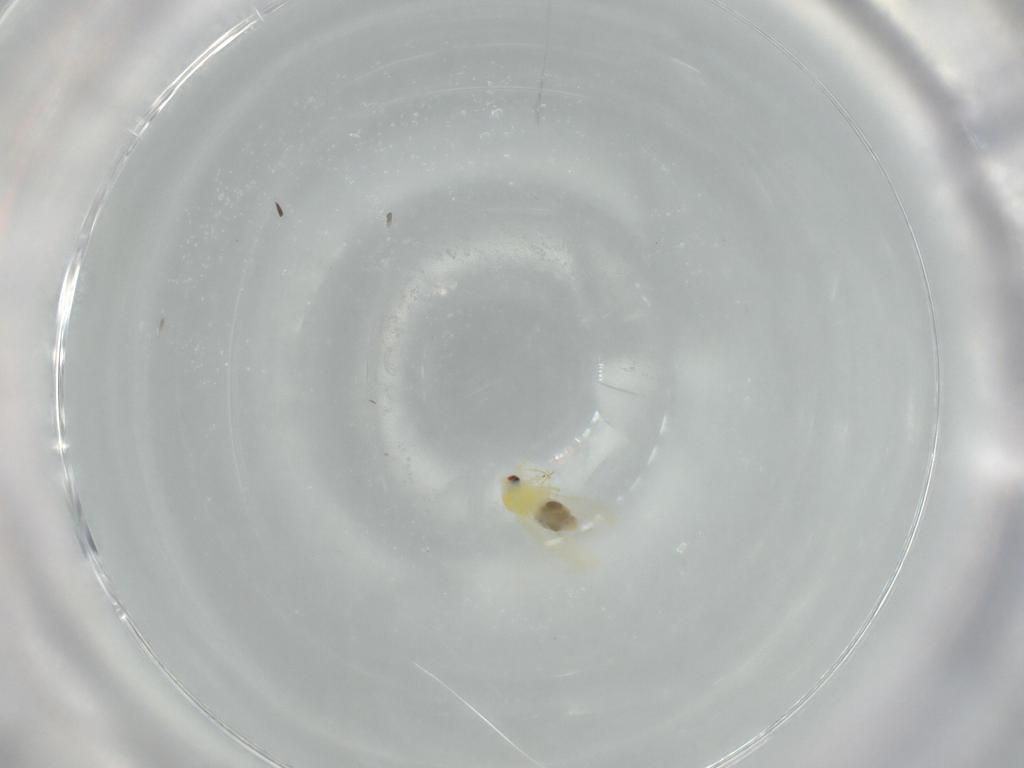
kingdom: Animalia
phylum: Arthropoda
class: Insecta
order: Hemiptera
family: Aleyrodidae
